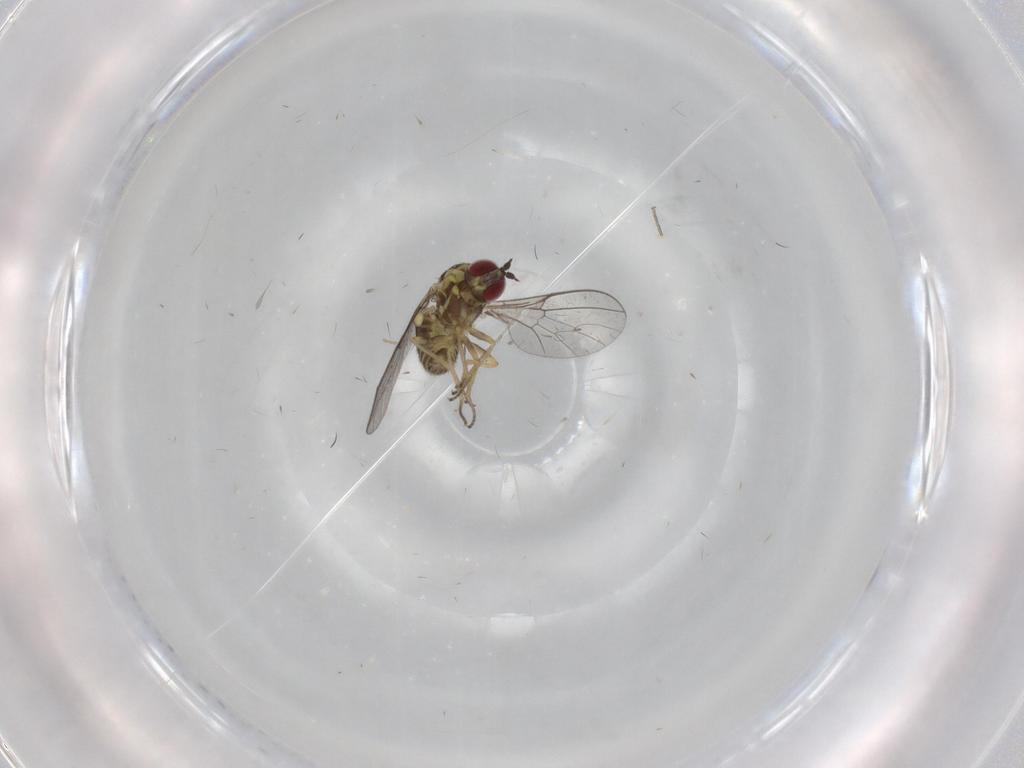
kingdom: Animalia
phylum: Arthropoda
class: Insecta
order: Diptera
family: Bombyliidae
